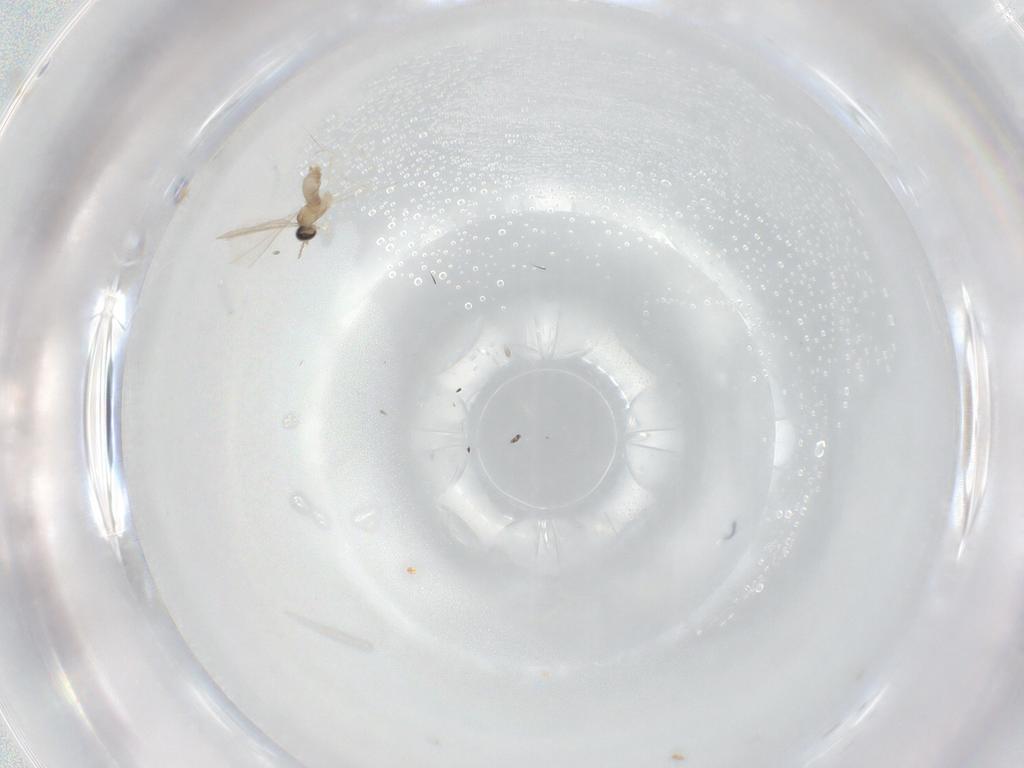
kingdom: Animalia
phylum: Arthropoda
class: Insecta
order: Diptera
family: Cecidomyiidae
